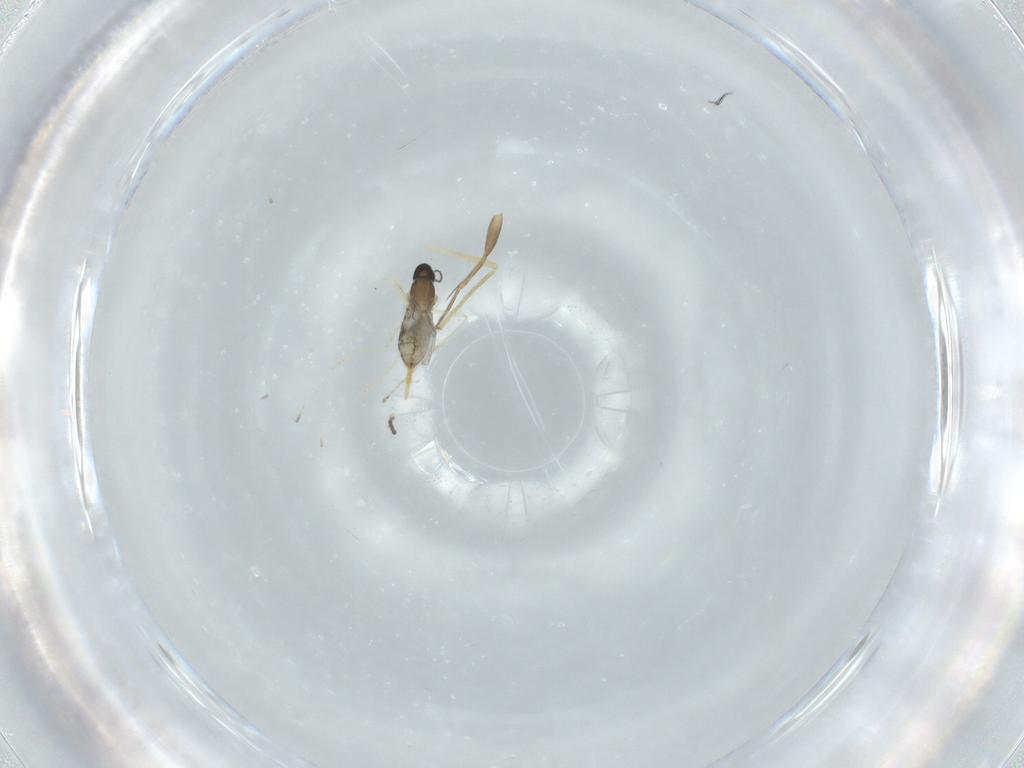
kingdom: Animalia
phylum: Arthropoda
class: Insecta
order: Diptera
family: Chironomidae
